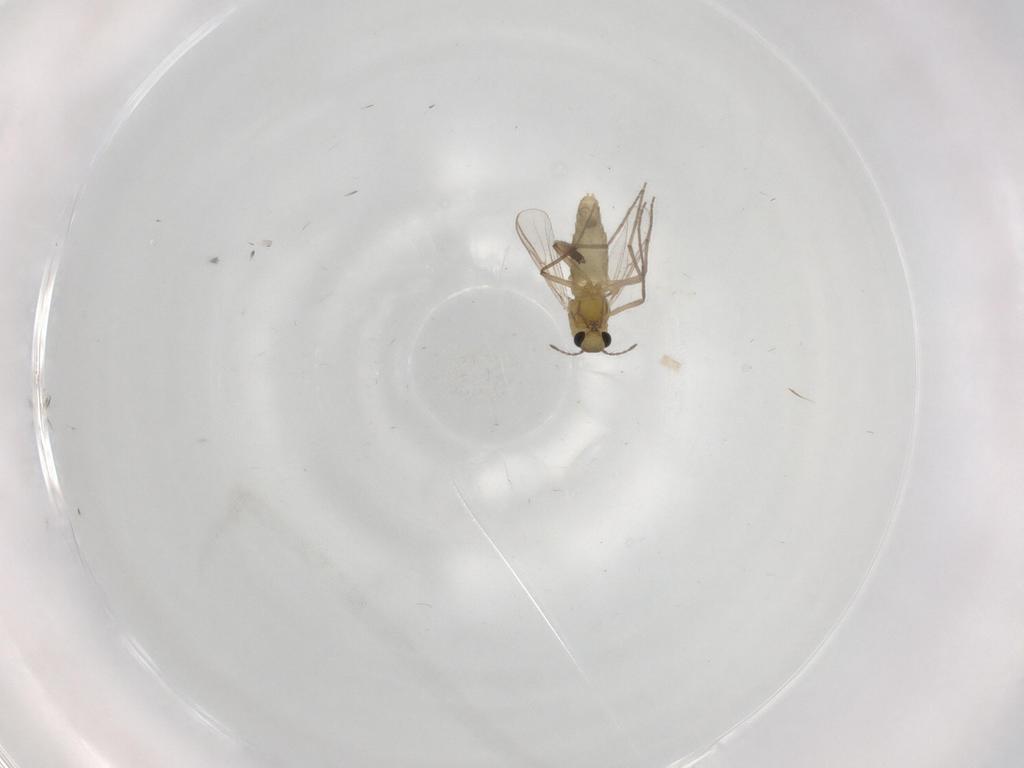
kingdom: Animalia
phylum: Arthropoda
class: Insecta
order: Diptera
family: Chironomidae
